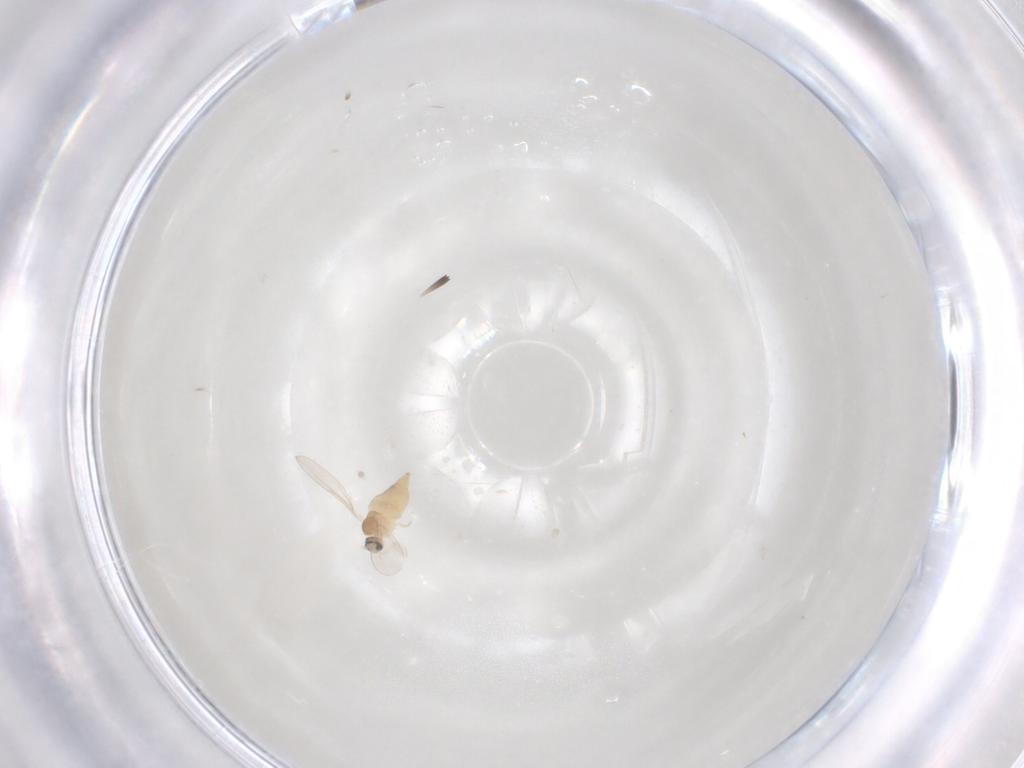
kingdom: Animalia
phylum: Arthropoda
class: Insecta
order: Diptera
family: Cecidomyiidae
